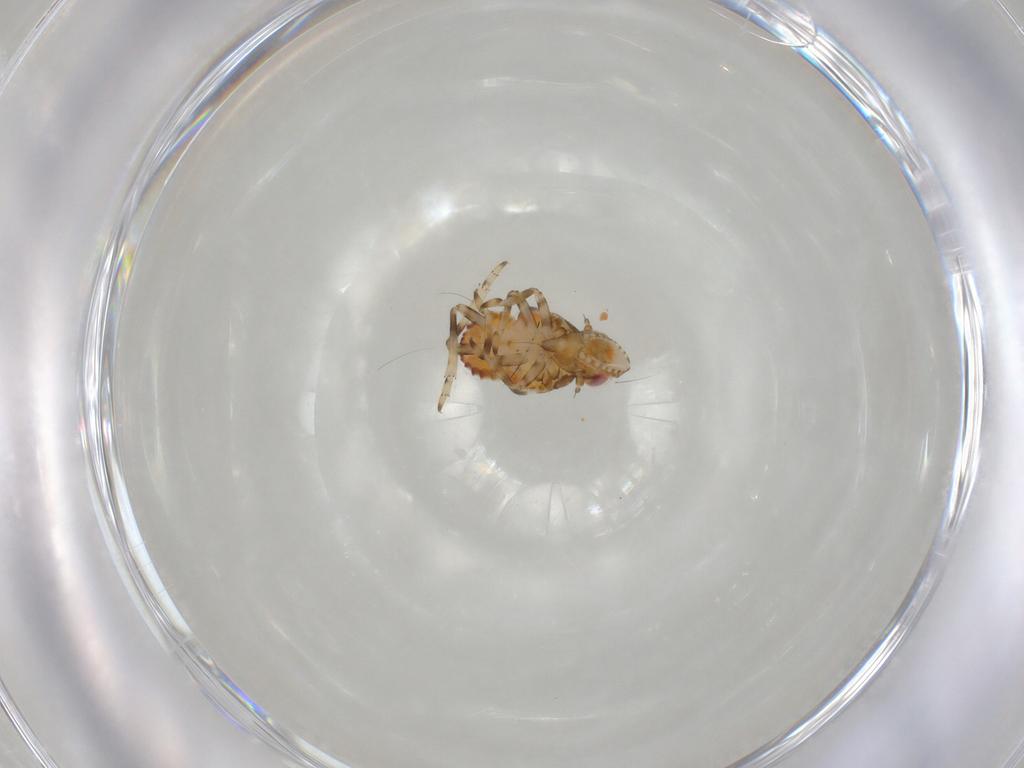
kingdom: Animalia
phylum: Arthropoda
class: Insecta
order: Hemiptera
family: Tropiduchidae
